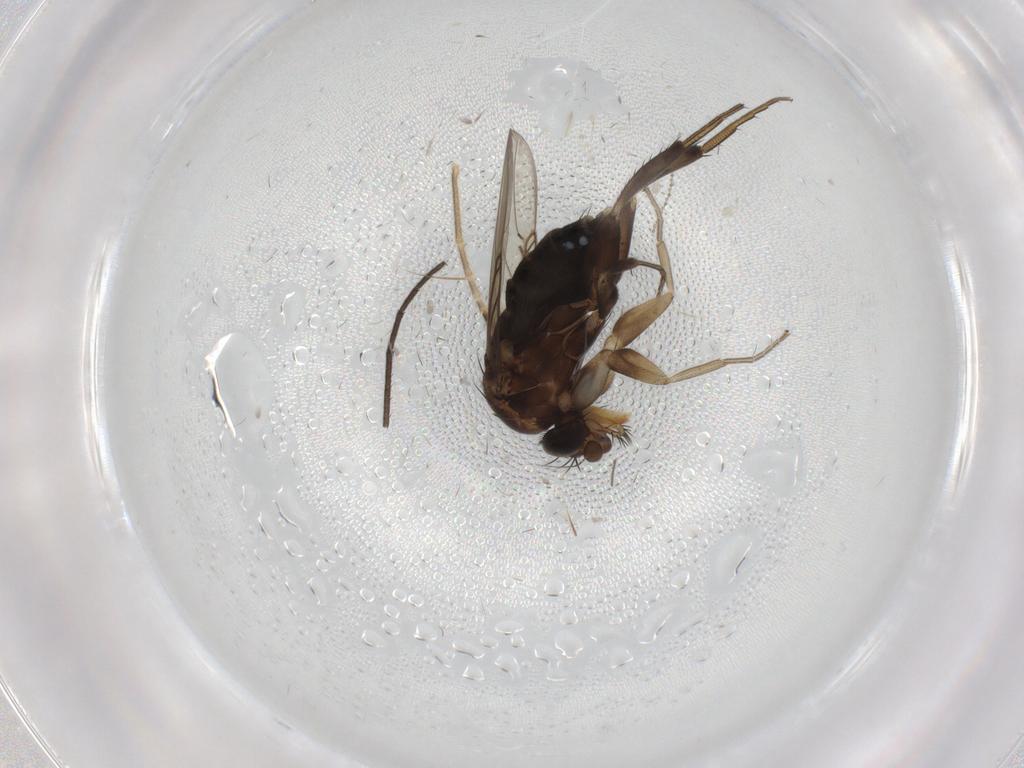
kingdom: Animalia
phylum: Arthropoda
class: Insecta
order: Diptera
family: Phoridae
